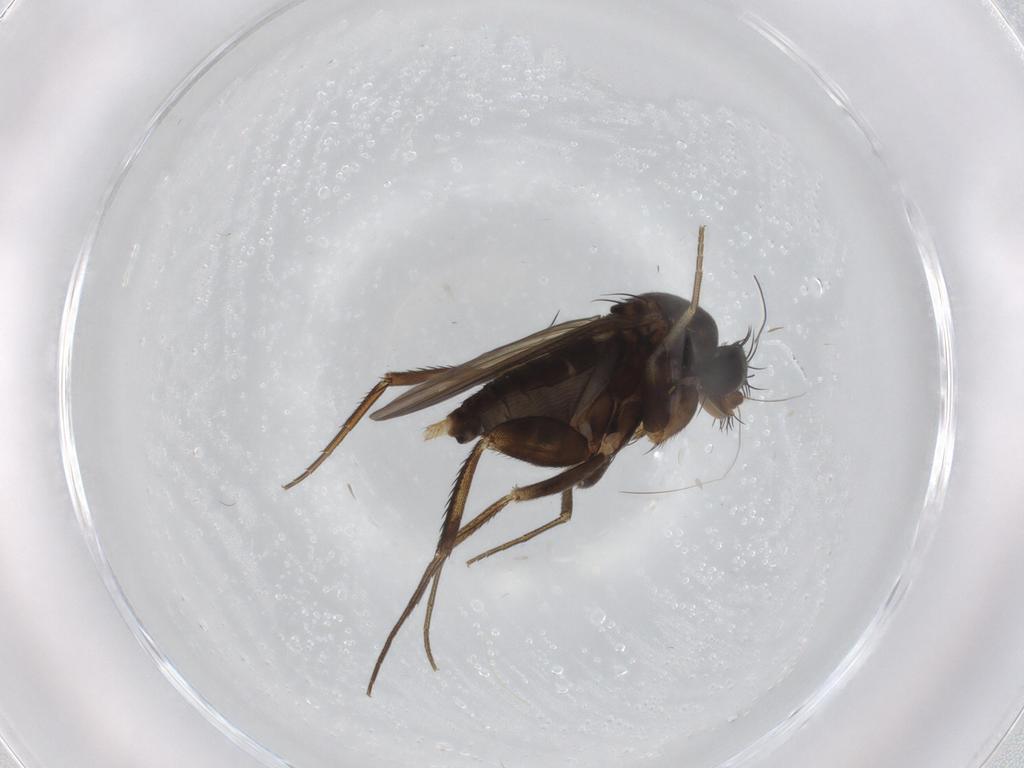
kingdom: Animalia
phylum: Arthropoda
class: Insecta
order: Diptera
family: Phoridae
